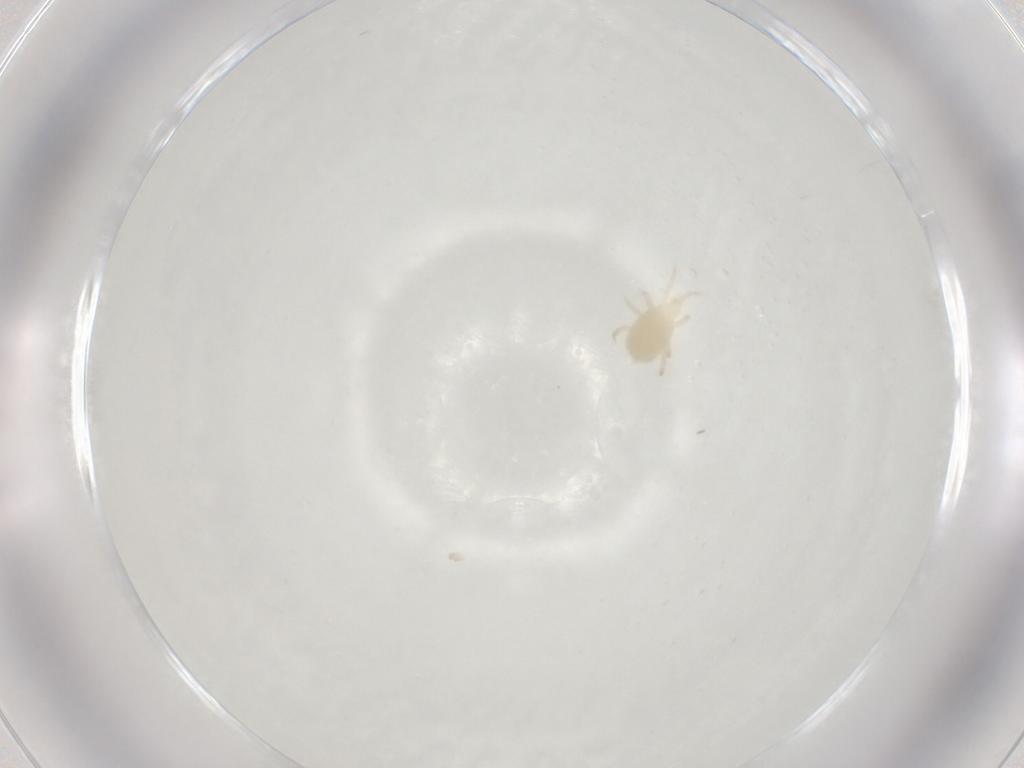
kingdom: Animalia
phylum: Arthropoda
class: Arachnida
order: Mesostigmata
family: Melicharidae
